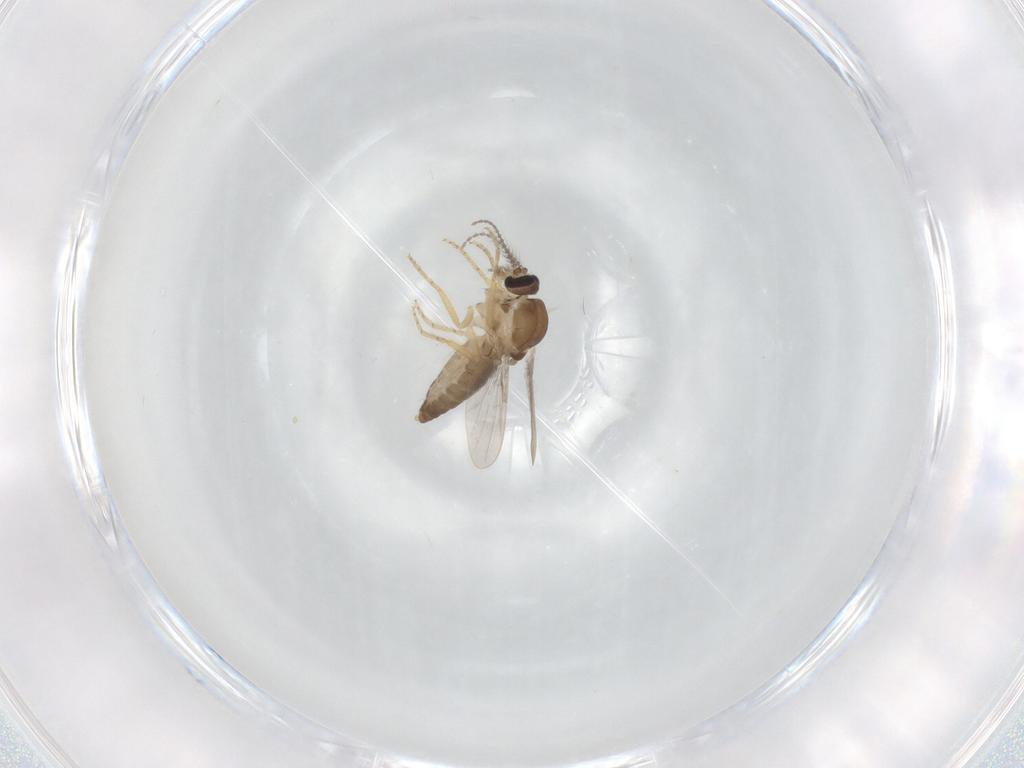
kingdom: Animalia
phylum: Arthropoda
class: Insecta
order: Diptera
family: Ceratopogonidae
